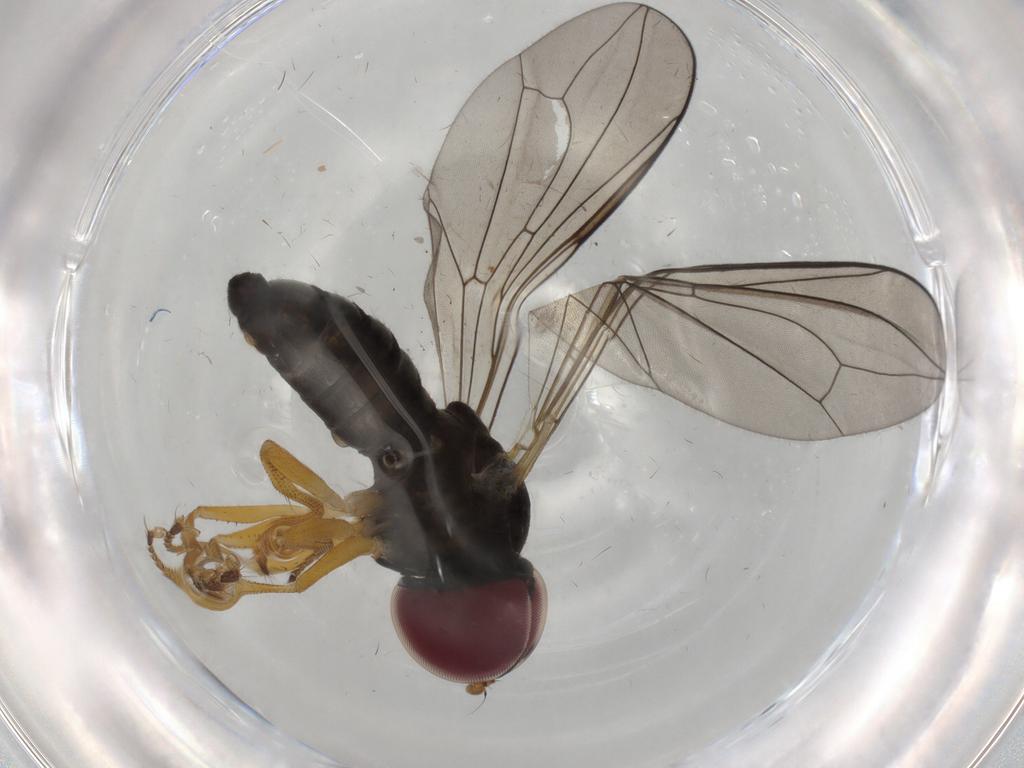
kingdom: Animalia
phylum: Arthropoda
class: Insecta
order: Diptera
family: Pipunculidae
